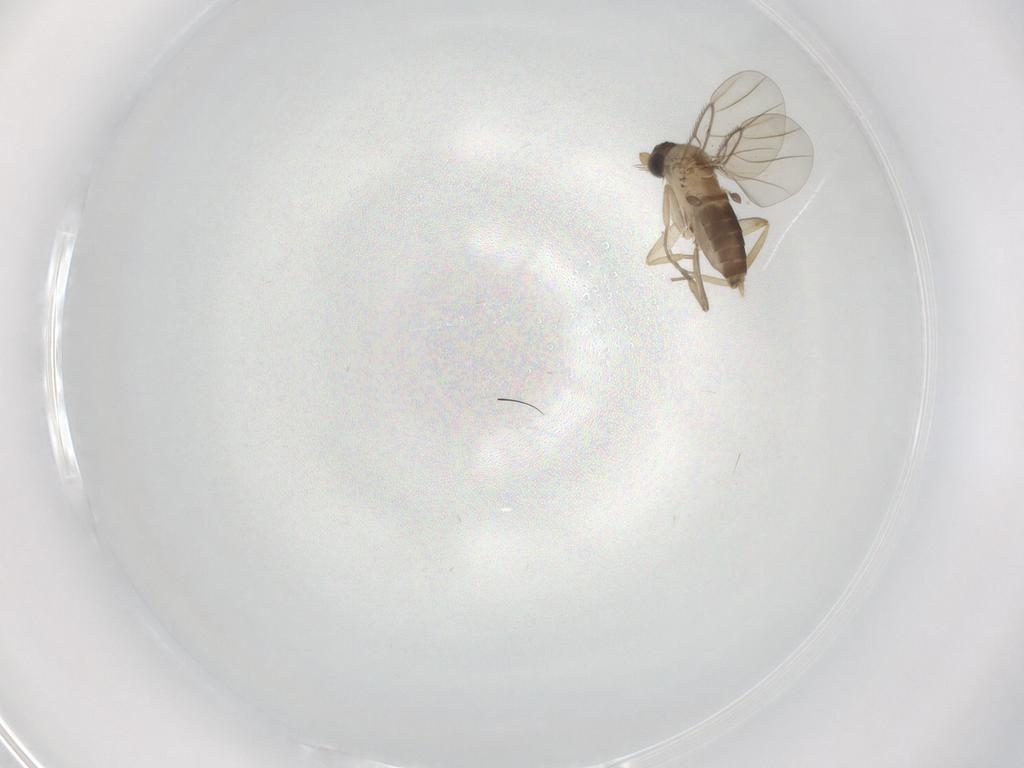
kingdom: Animalia
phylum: Arthropoda
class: Insecta
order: Diptera
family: Phoridae
